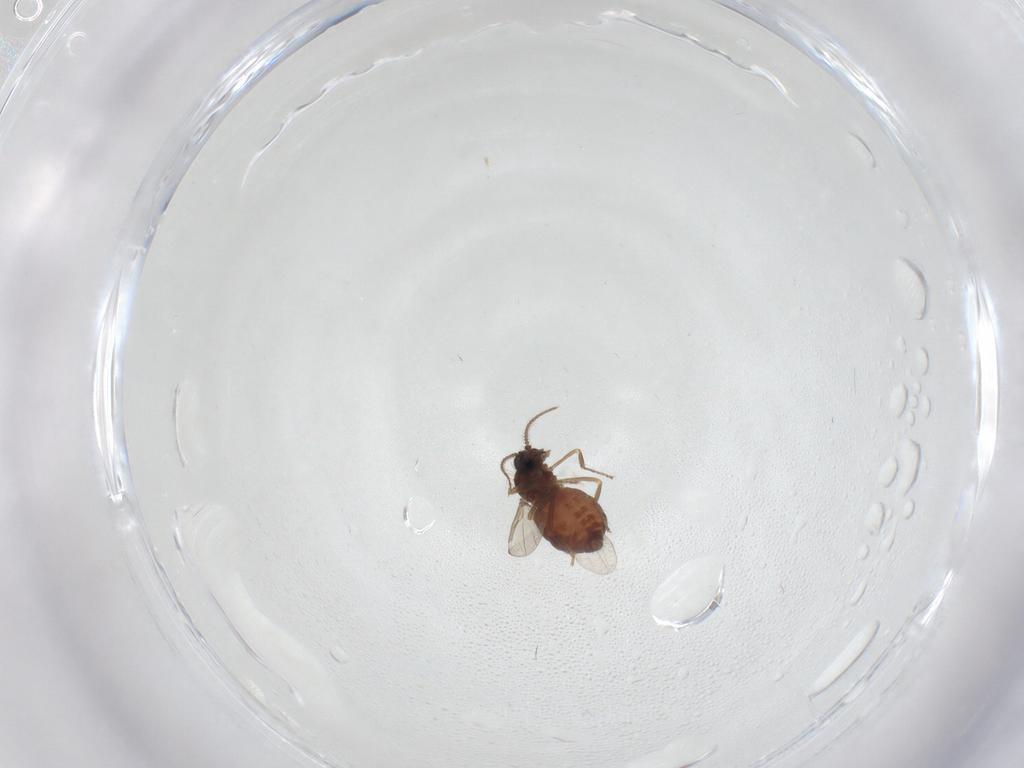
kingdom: Animalia
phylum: Arthropoda
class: Insecta
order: Diptera
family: Ceratopogonidae
